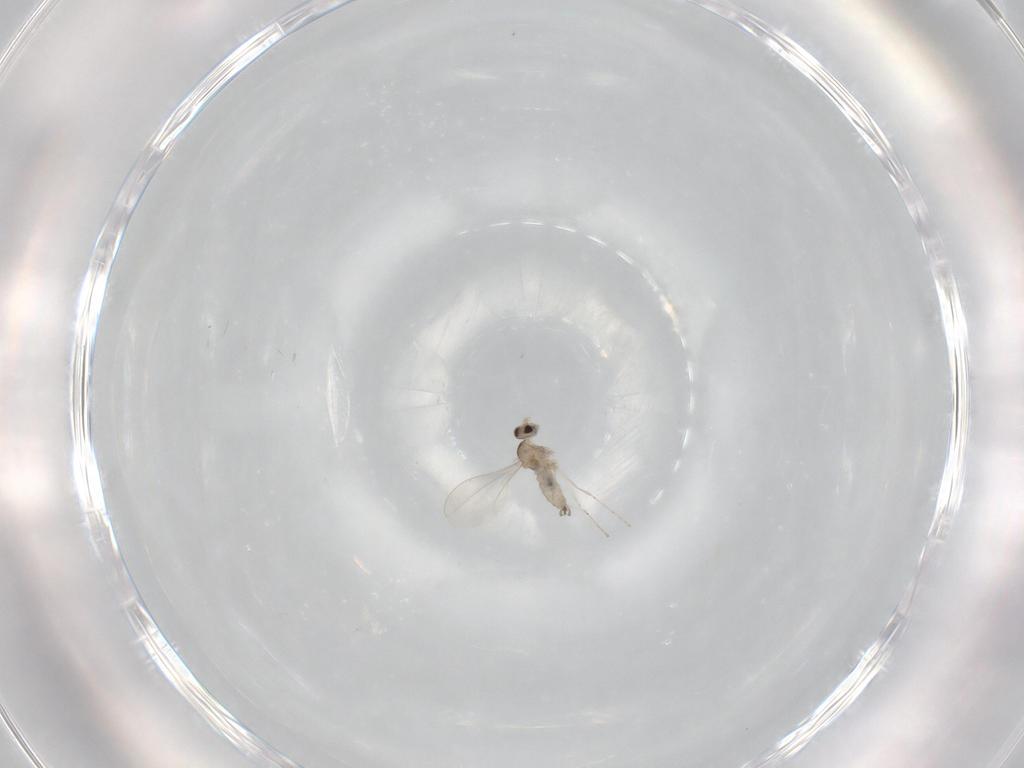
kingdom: Animalia
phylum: Arthropoda
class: Insecta
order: Diptera
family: Cecidomyiidae
